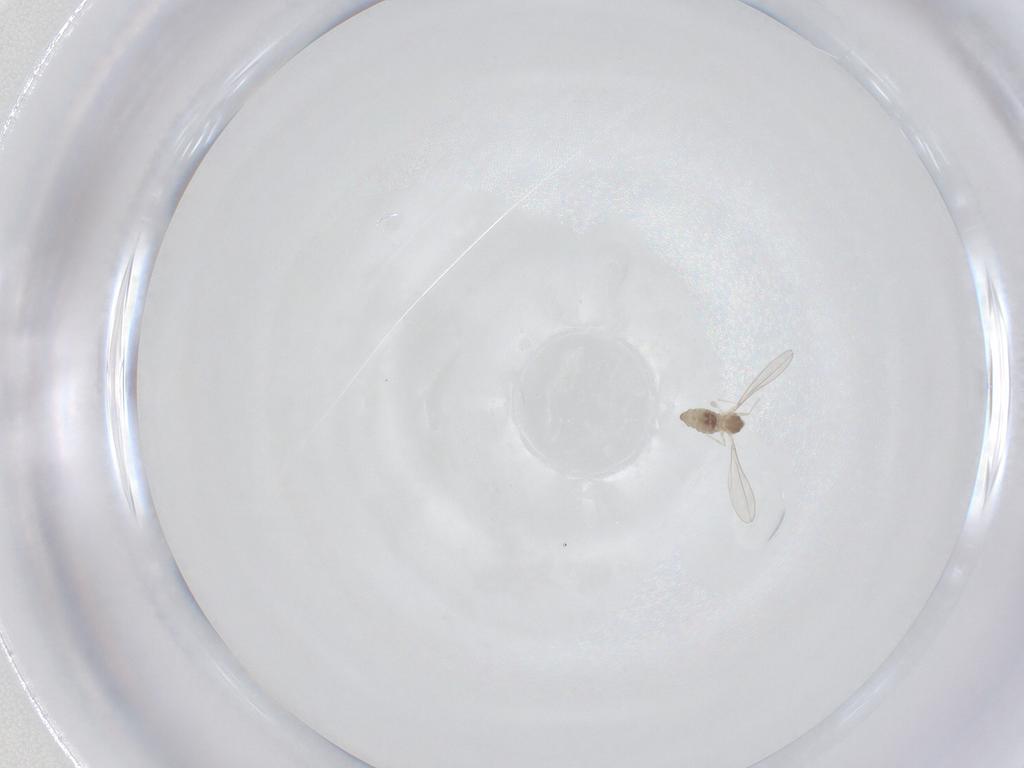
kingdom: Animalia
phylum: Arthropoda
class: Insecta
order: Diptera
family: Cecidomyiidae
